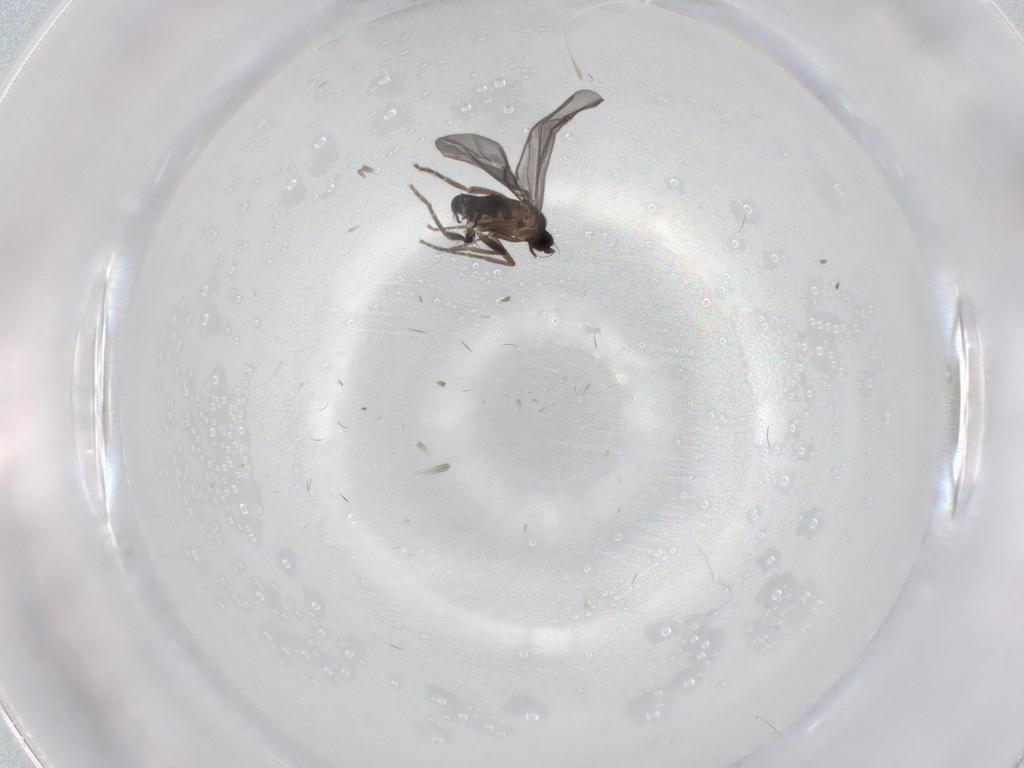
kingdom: Animalia
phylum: Arthropoda
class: Insecta
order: Diptera
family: Phoridae
